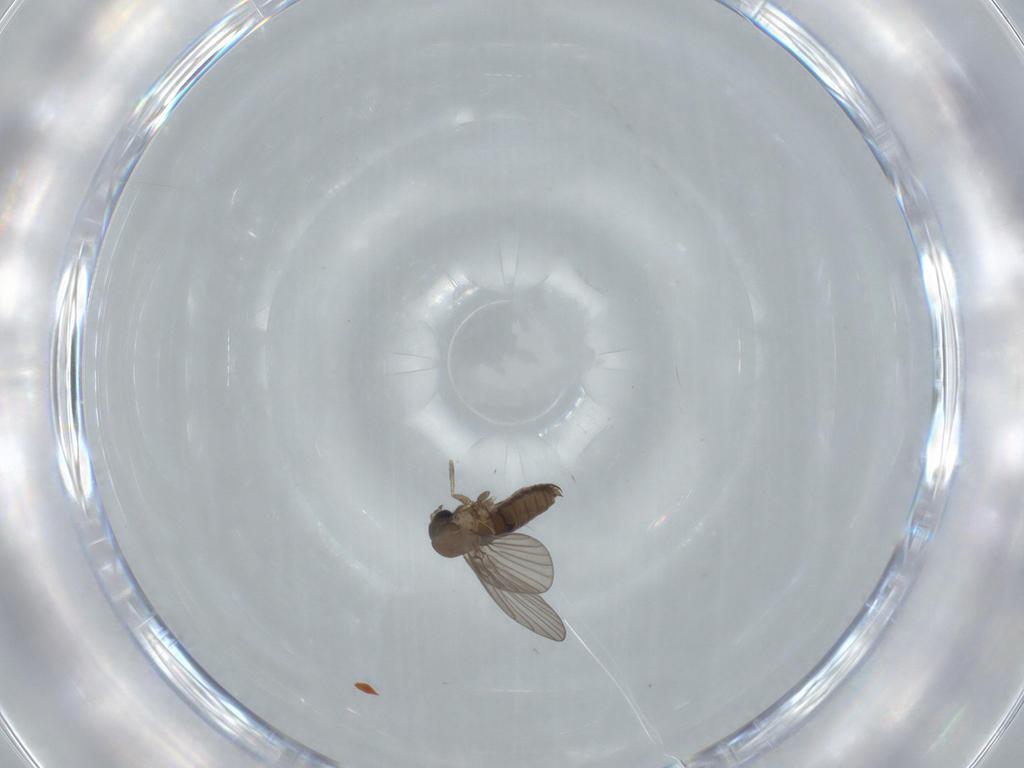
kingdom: Animalia
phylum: Arthropoda
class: Insecta
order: Diptera
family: Psychodidae
